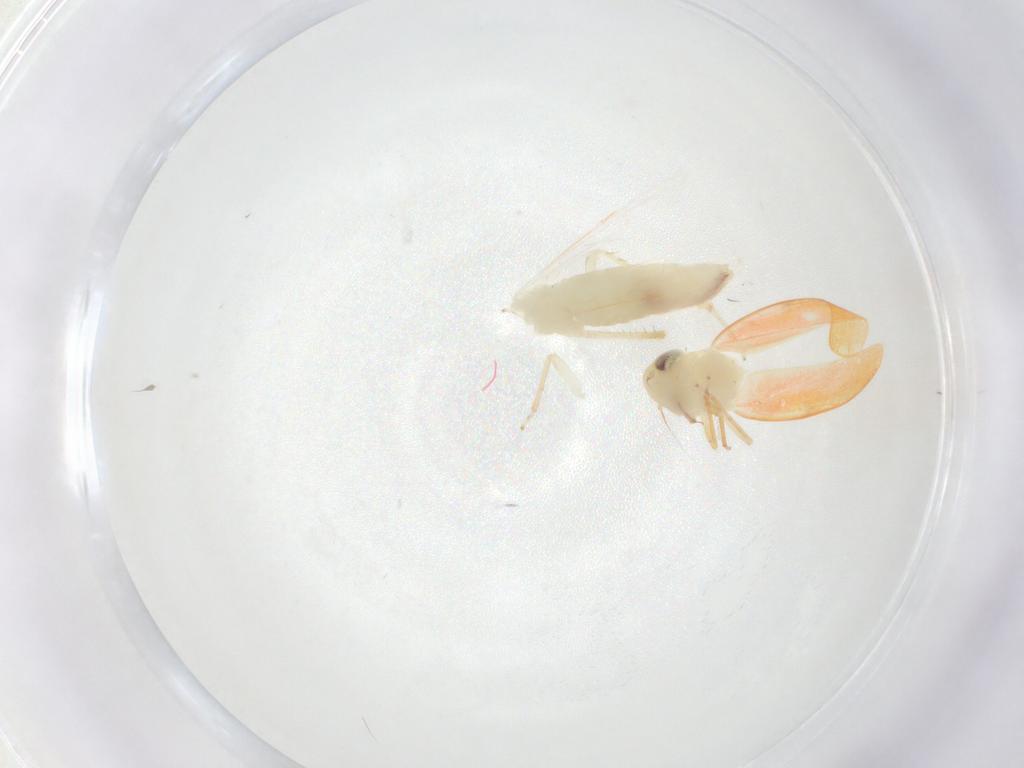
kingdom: Animalia
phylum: Arthropoda
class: Insecta
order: Hemiptera
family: Cicadellidae
